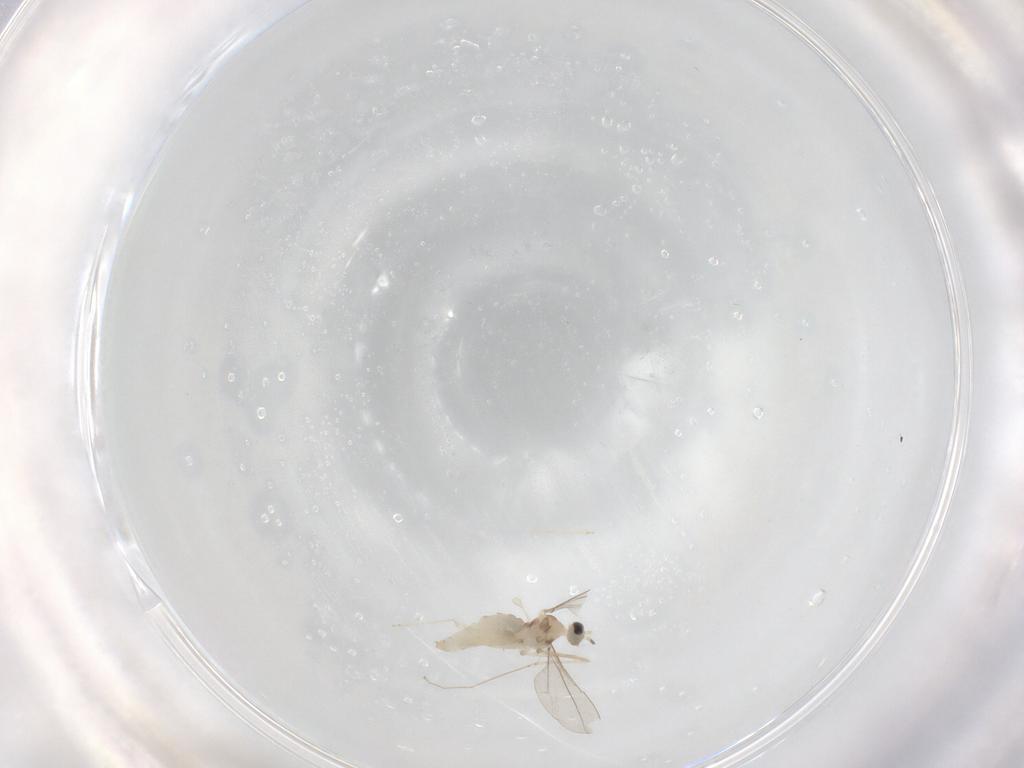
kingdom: Animalia
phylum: Arthropoda
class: Insecta
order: Diptera
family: Cecidomyiidae
